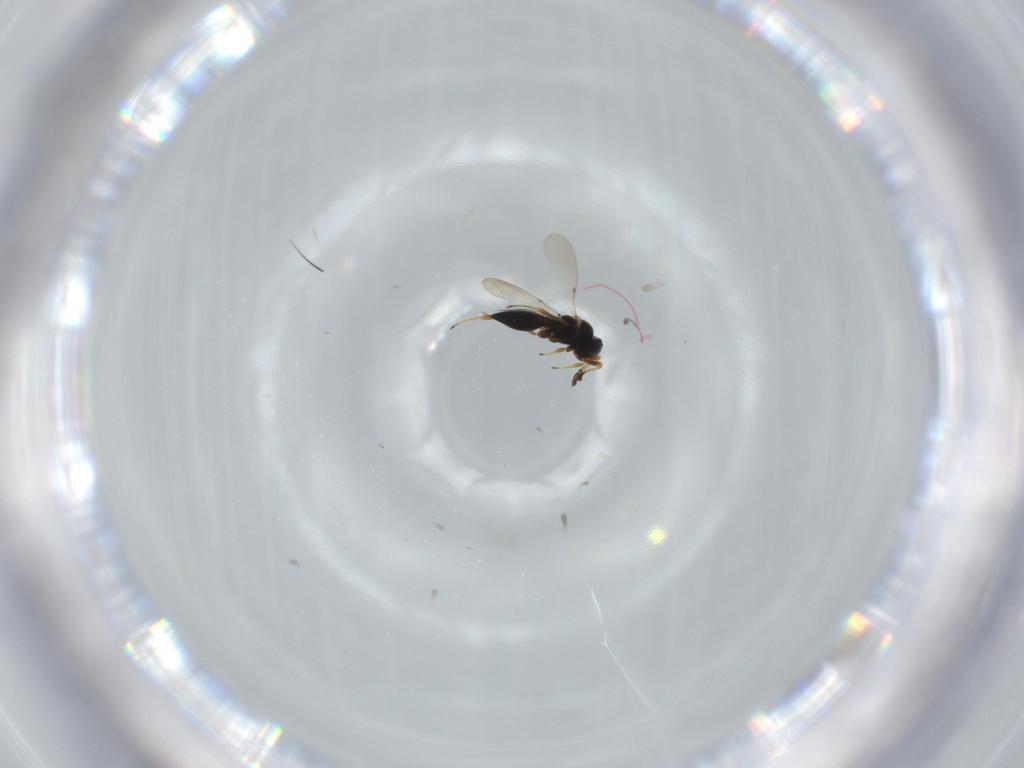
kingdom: Animalia
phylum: Arthropoda
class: Insecta
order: Hymenoptera
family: Platygastridae
